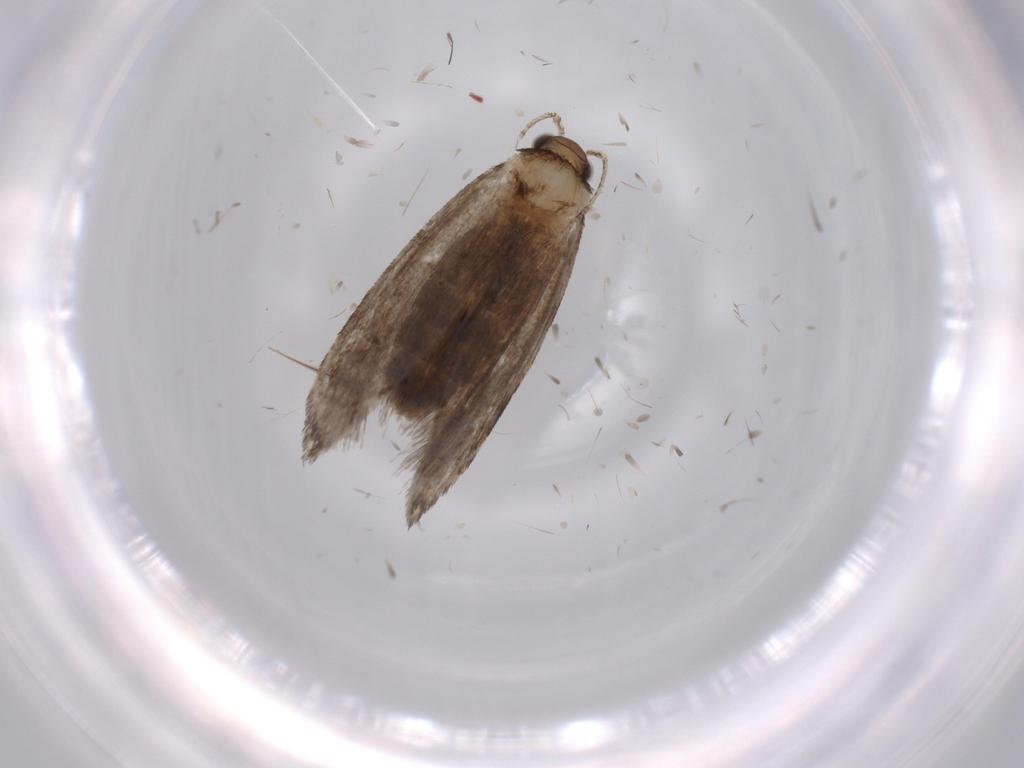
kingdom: Animalia
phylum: Arthropoda
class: Insecta
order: Lepidoptera
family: Tineidae
